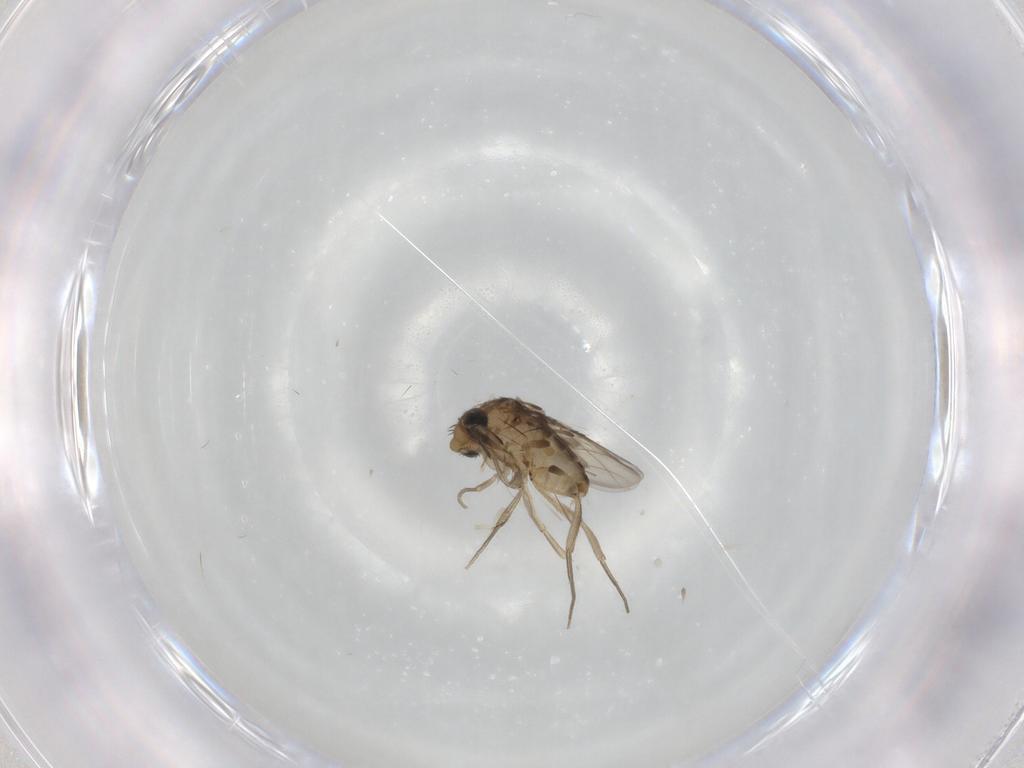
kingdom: Animalia
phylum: Arthropoda
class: Insecta
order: Diptera
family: Phoridae
